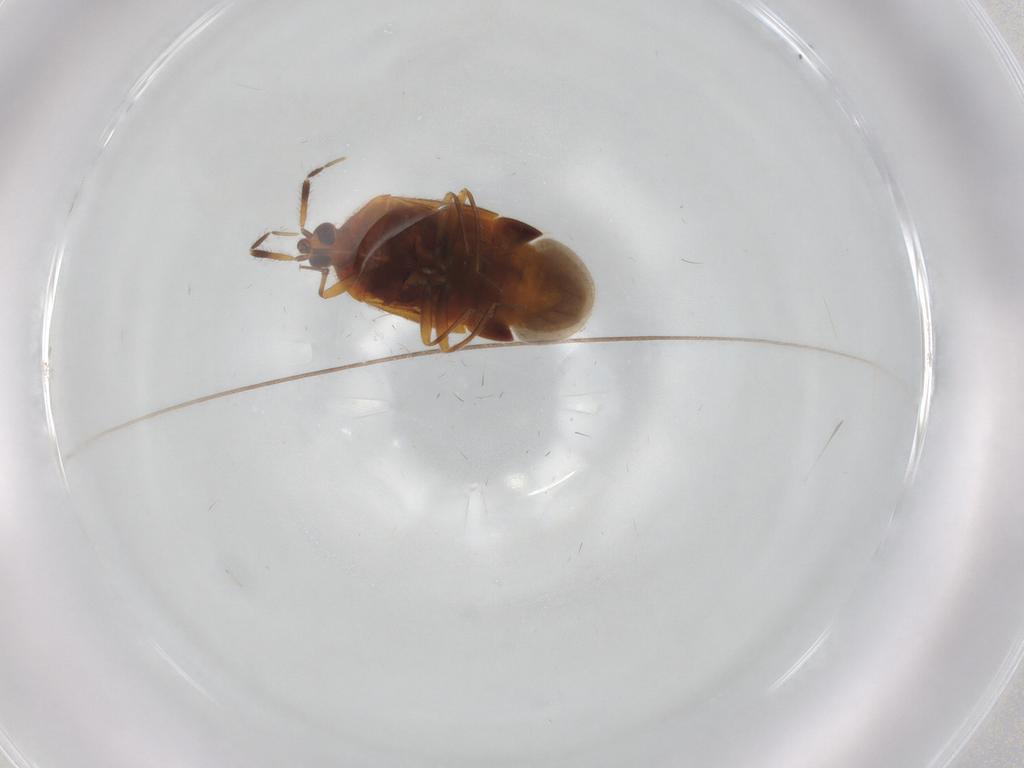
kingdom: Animalia
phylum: Arthropoda
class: Insecta
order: Hemiptera
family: Anthocoridae
